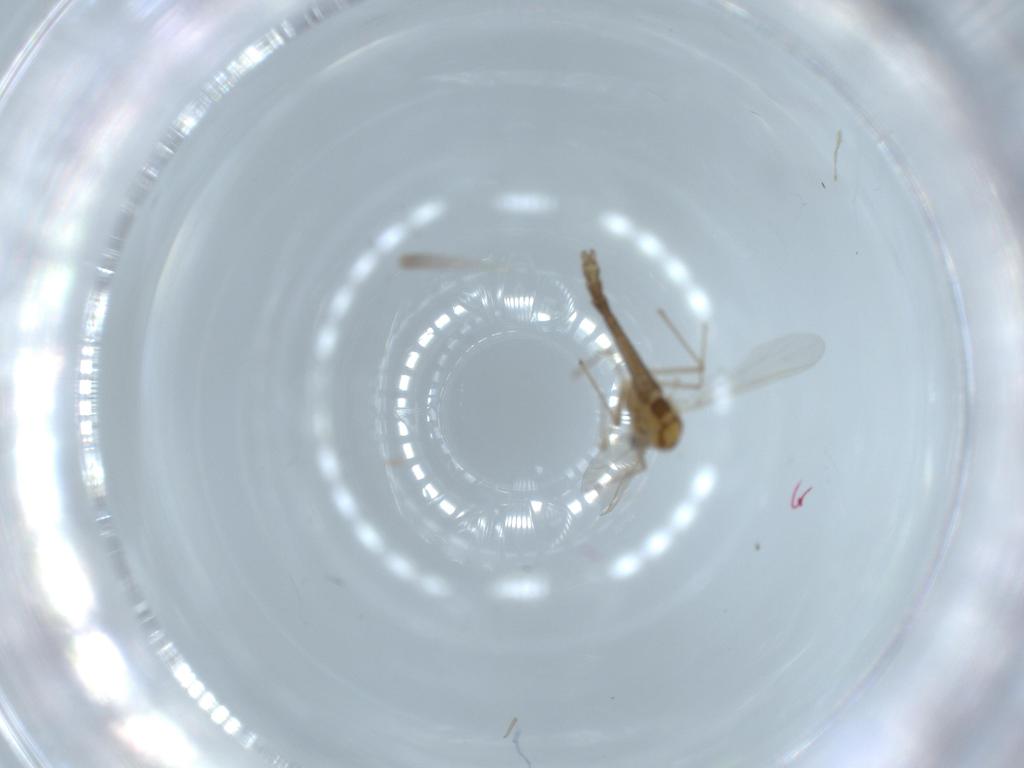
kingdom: Animalia
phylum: Arthropoda
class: Insecta
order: Diptera
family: Chironomidae
